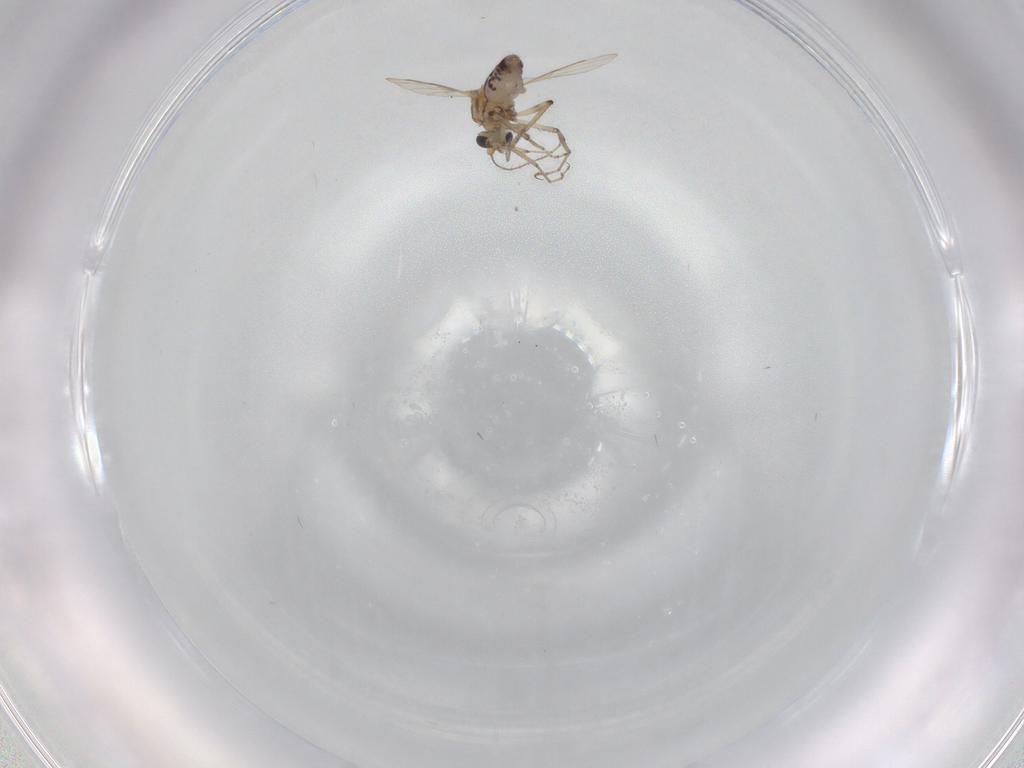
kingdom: Animalia
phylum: Arthropoda
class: Insecta
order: Diptera
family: Ceratopogonidae
